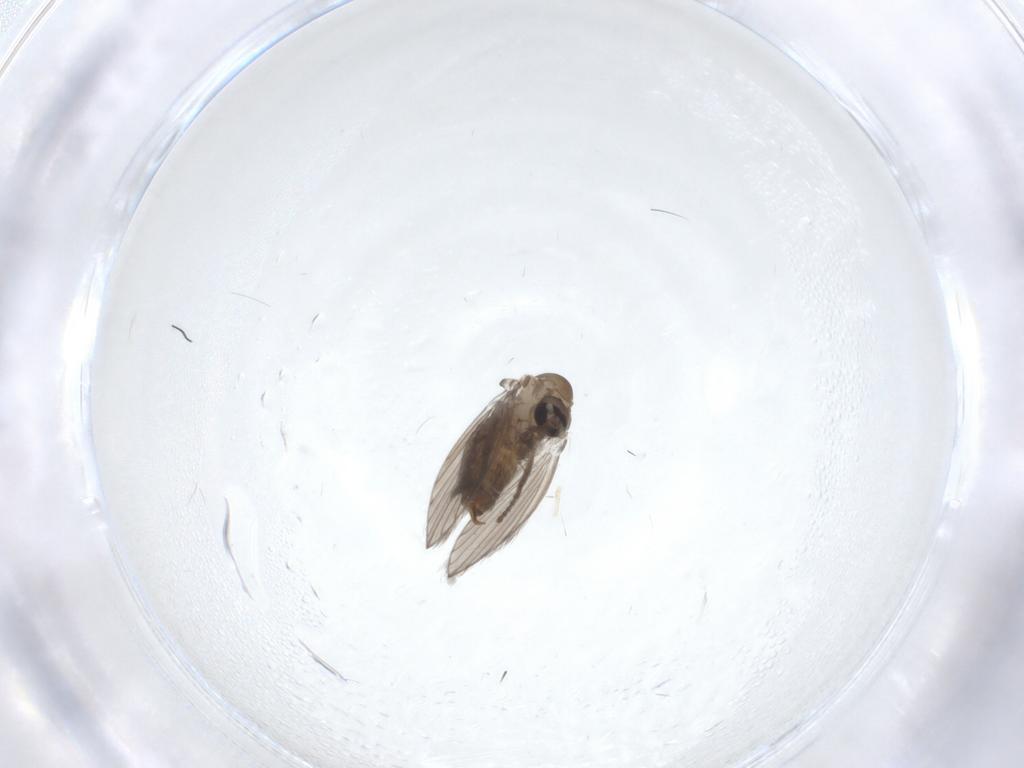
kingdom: Animalia
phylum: Arthropoda
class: Insecta
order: Diptera
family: Psychodidae
